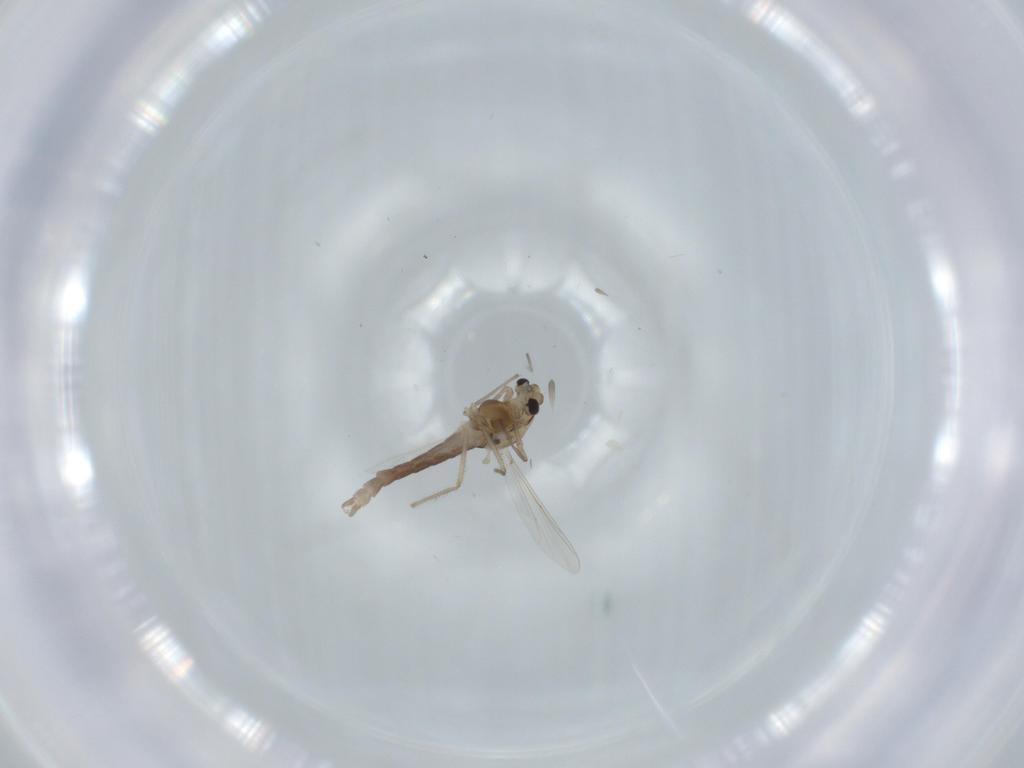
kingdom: Animalia
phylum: Arthropoda
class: Insecta
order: Diptera
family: Chironomidae
